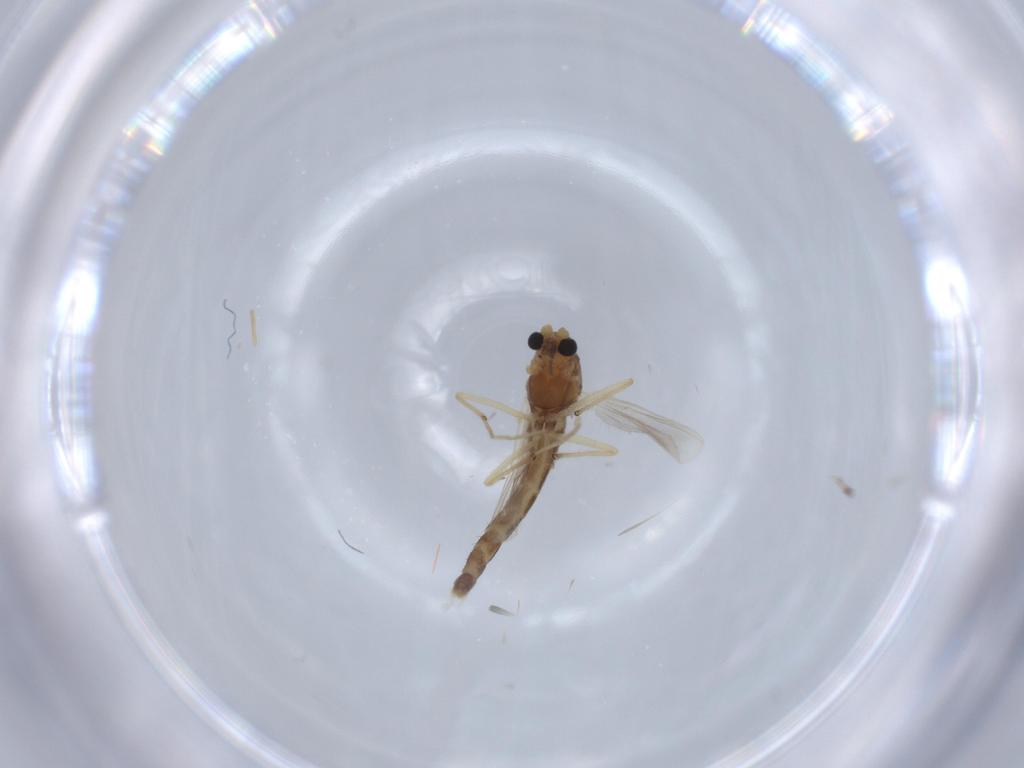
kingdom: Animalia
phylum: Arthropoda
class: Insecta
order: Diptera
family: Chironomidae
